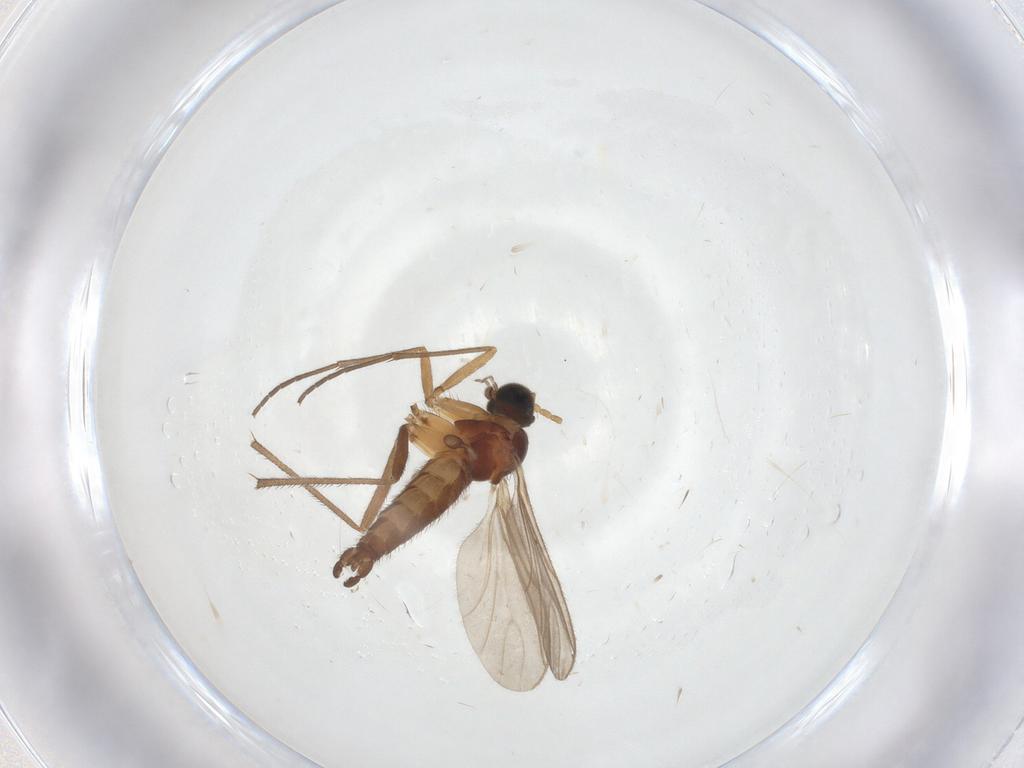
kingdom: Animalia
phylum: Arthropoda
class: Insecta
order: Diptera
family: Sciaridae
